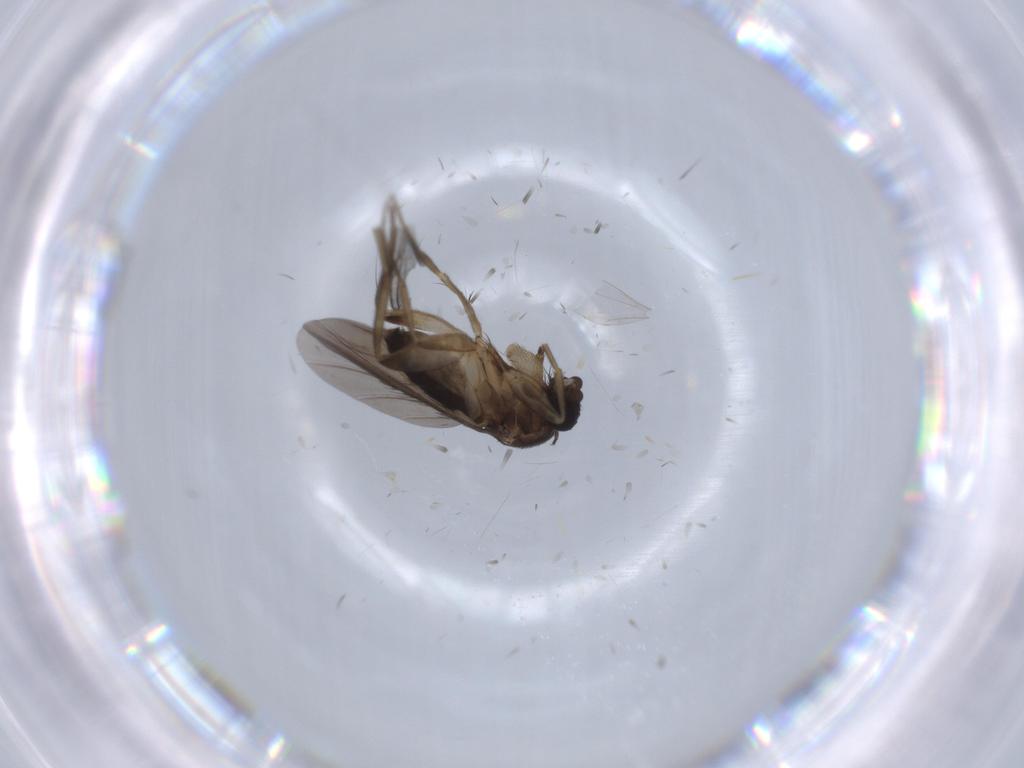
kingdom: Animalia
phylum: Arthropoda
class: Insecta
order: Diptera
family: Phoridae
